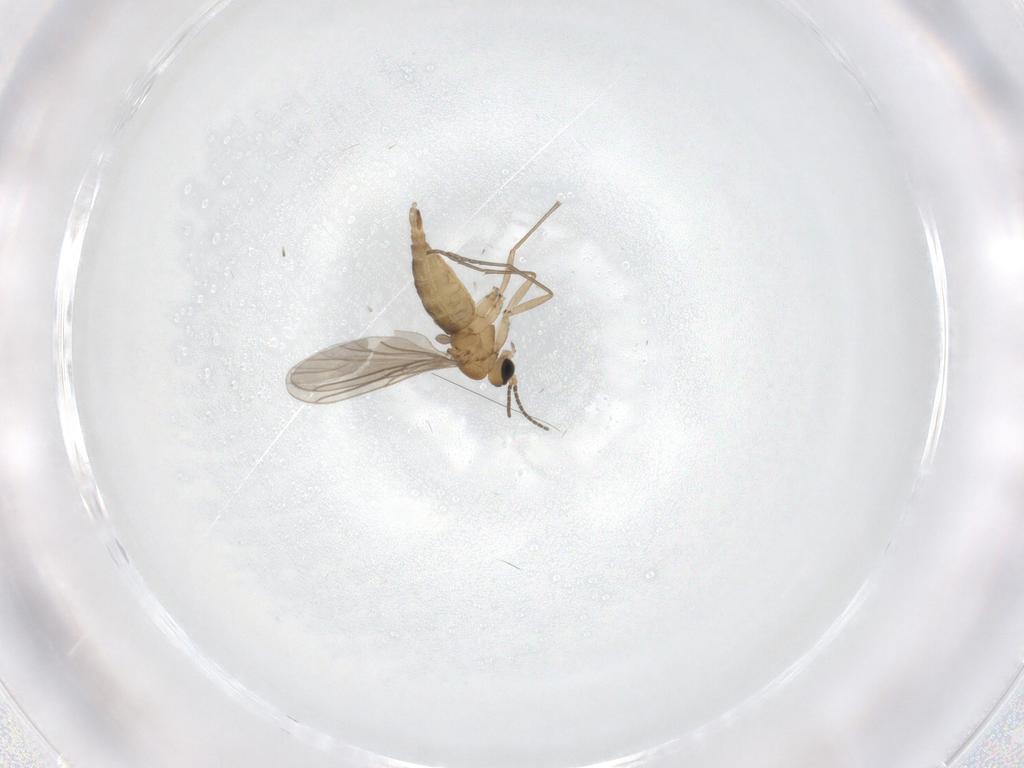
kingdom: Animalia
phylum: Arthropoda
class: Insecta
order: Diptera
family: Sciaridae
